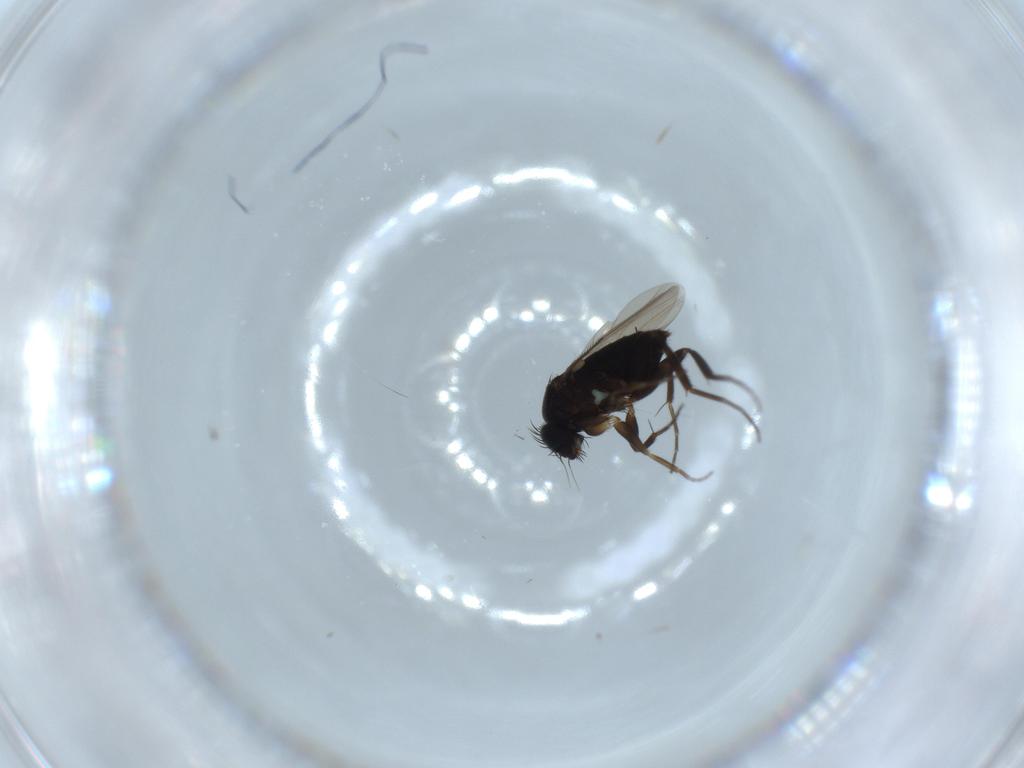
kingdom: Animalia
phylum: Arthropoda
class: Insecta
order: Diptera
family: Phoridae
